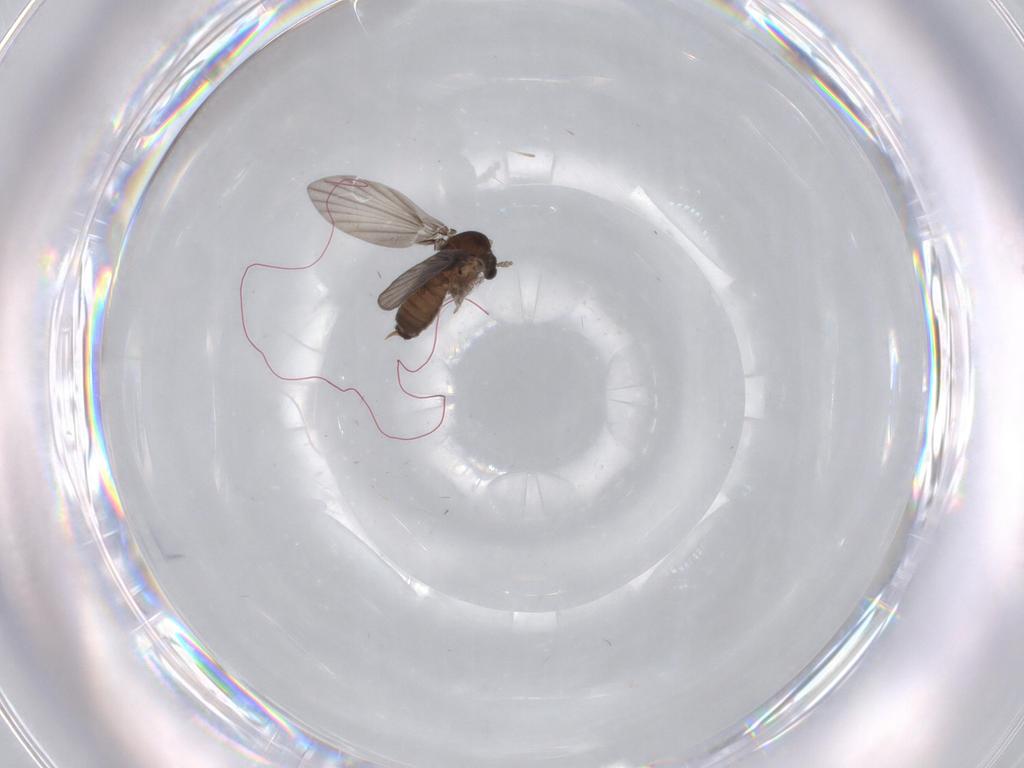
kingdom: Animalia
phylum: Arthropoda
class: Insecta
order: Diptera
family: Psychodidae
